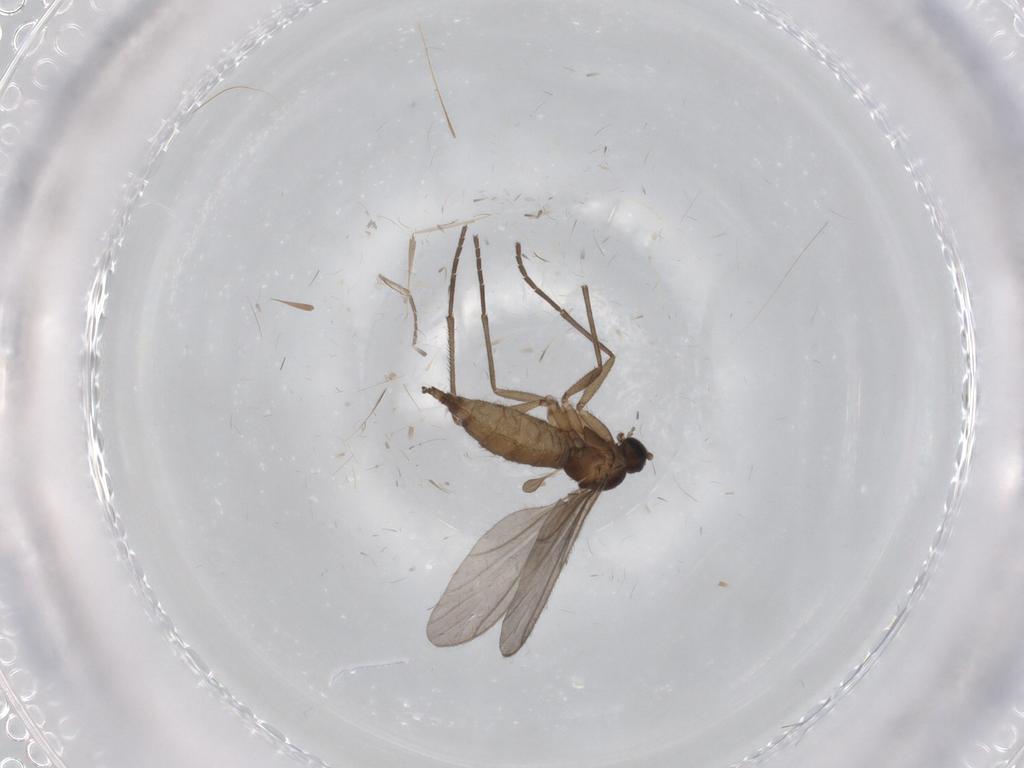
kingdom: Animalia
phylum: Arthropoda
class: Insecta
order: Diptera
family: Phoridae
